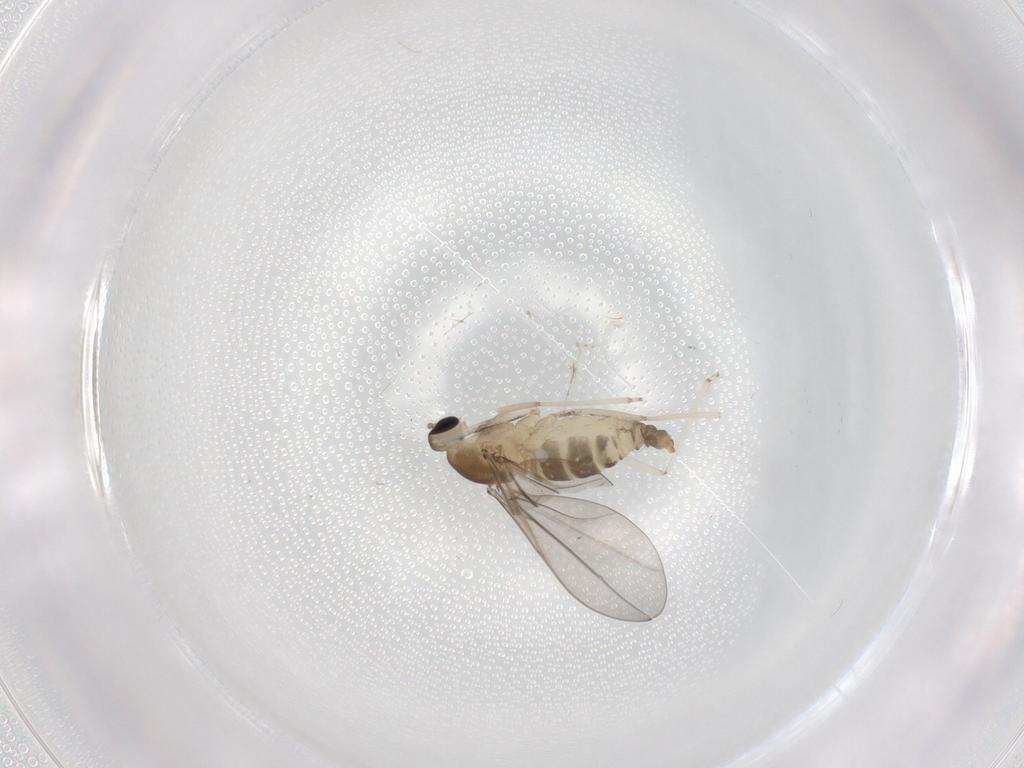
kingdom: Animalia
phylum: Arthropoda
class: Insecta
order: Diptera
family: Cecidomyiidae
